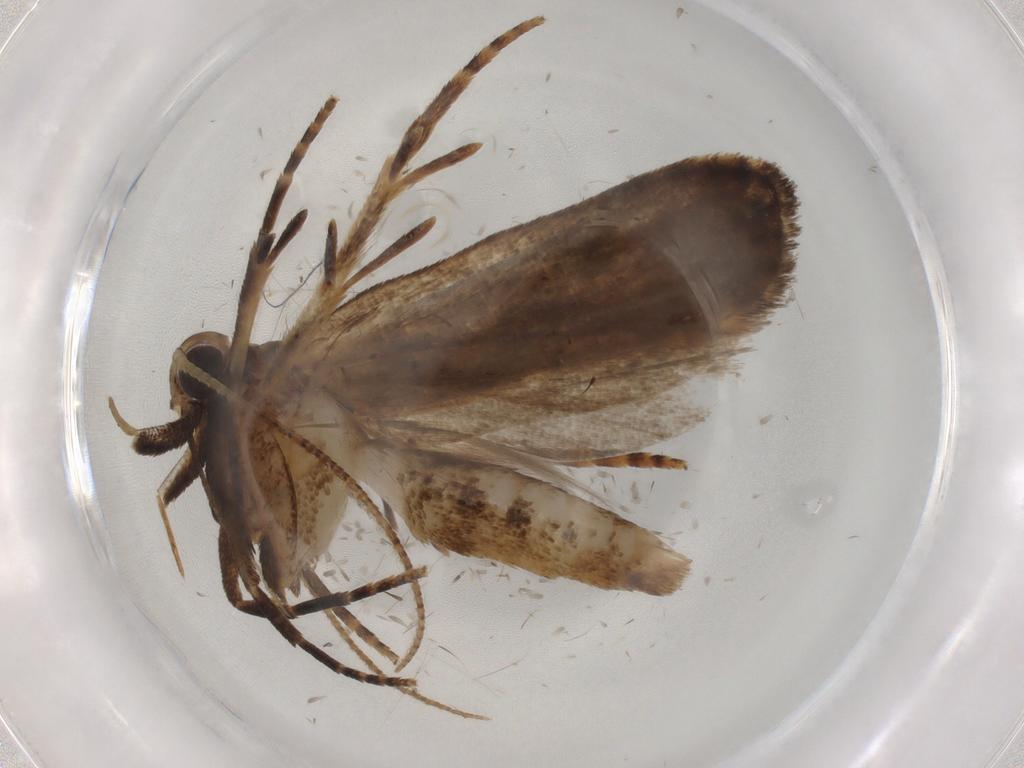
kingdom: Animalia
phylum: Arthropoda
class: Insecta
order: Lepidoptera
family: Gelechiidae
